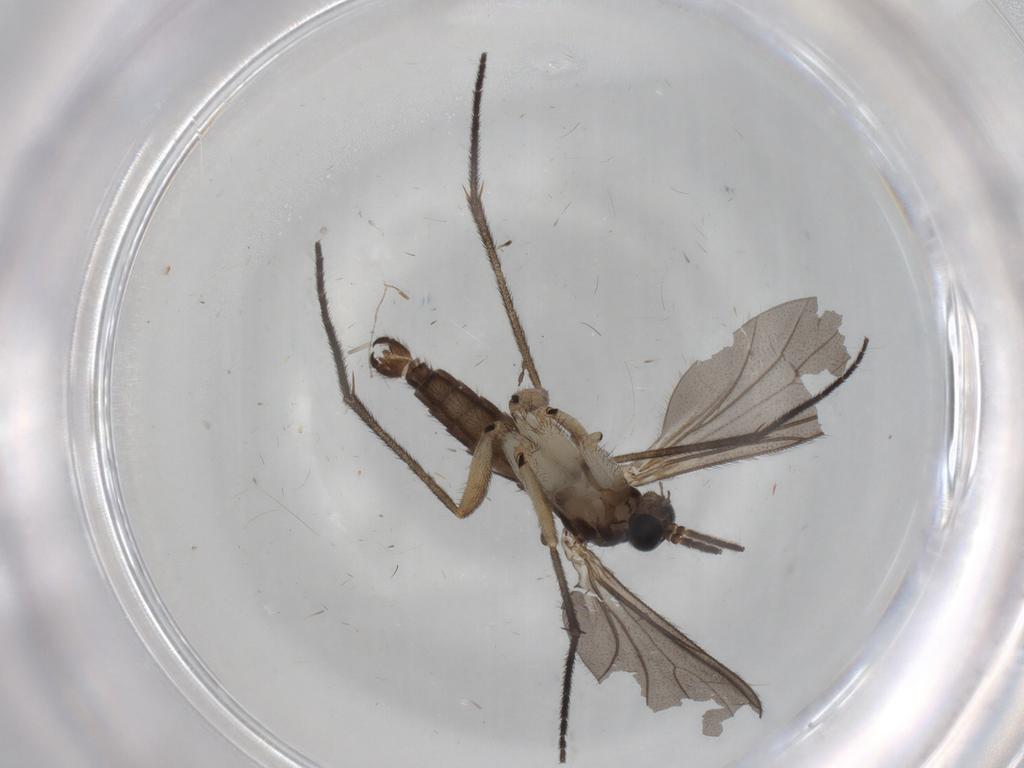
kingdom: Animalia
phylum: Arthropoda
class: Insecta
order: Diptera
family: Sciaridae
